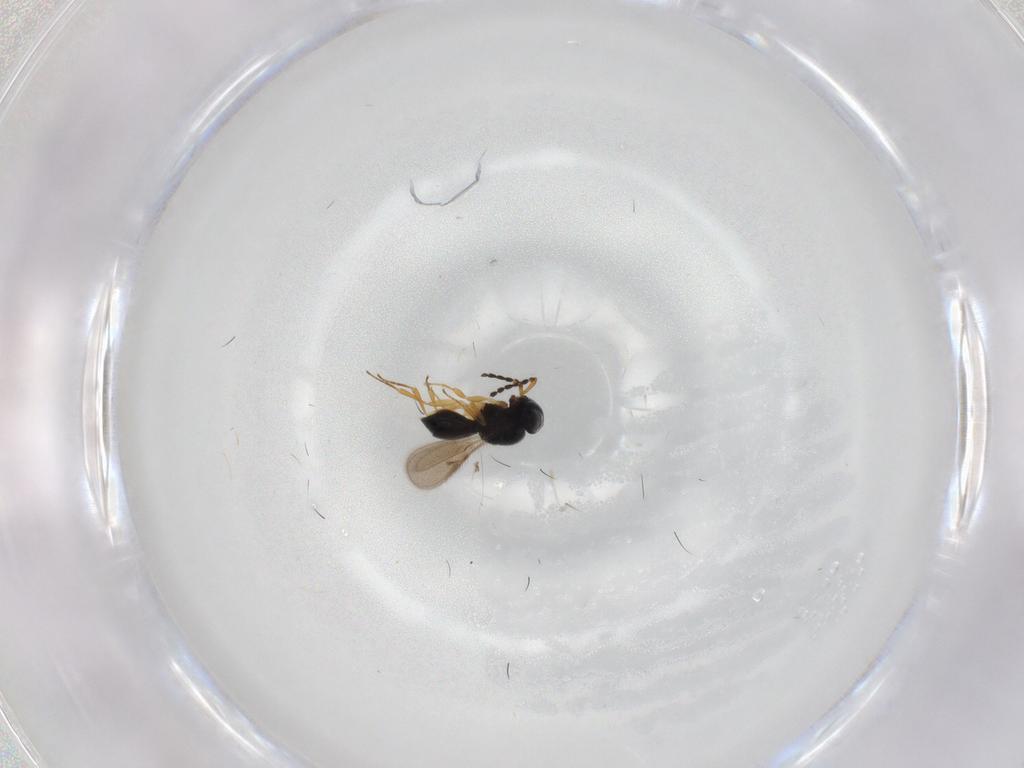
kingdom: Animalia
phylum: Arthropoda
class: Insecta
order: Hymenoptera
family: Scelionidae
